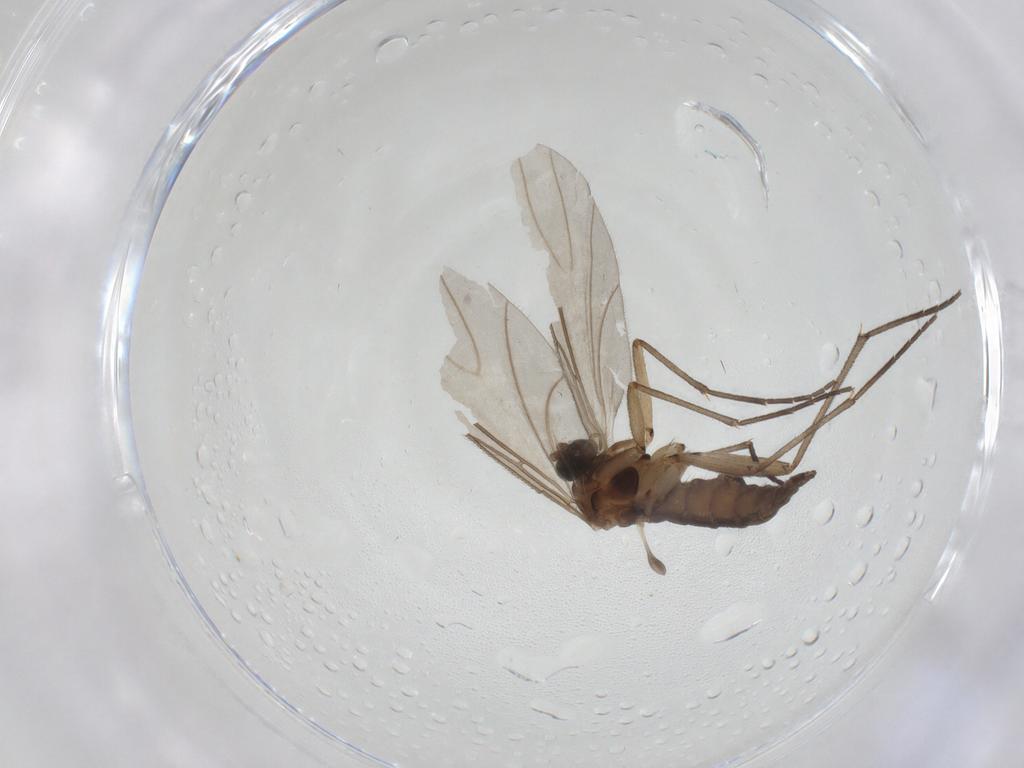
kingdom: Animalia
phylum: Arthropoda
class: Insecta
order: Diptera
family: Sciaridae
